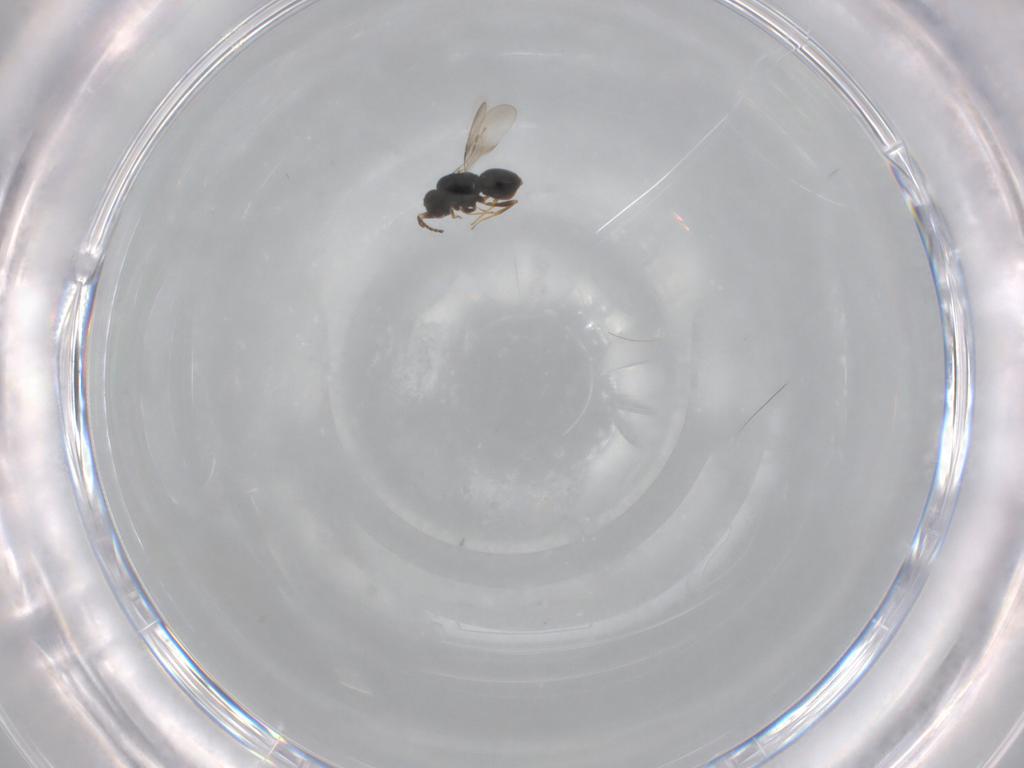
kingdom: Animalia
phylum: Arthropoda
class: Insecta
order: Hymenoptera
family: Vespidae
